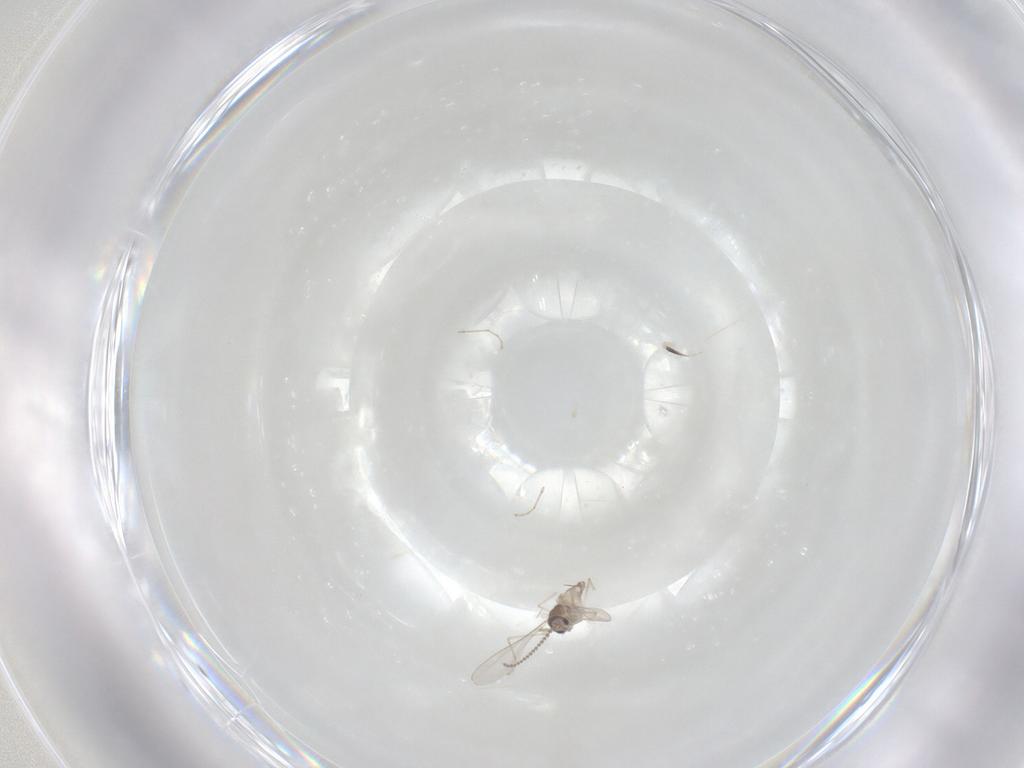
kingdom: Animalia
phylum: Arthropoda
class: Insecta
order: Diptera
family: Cecidomyiidae
